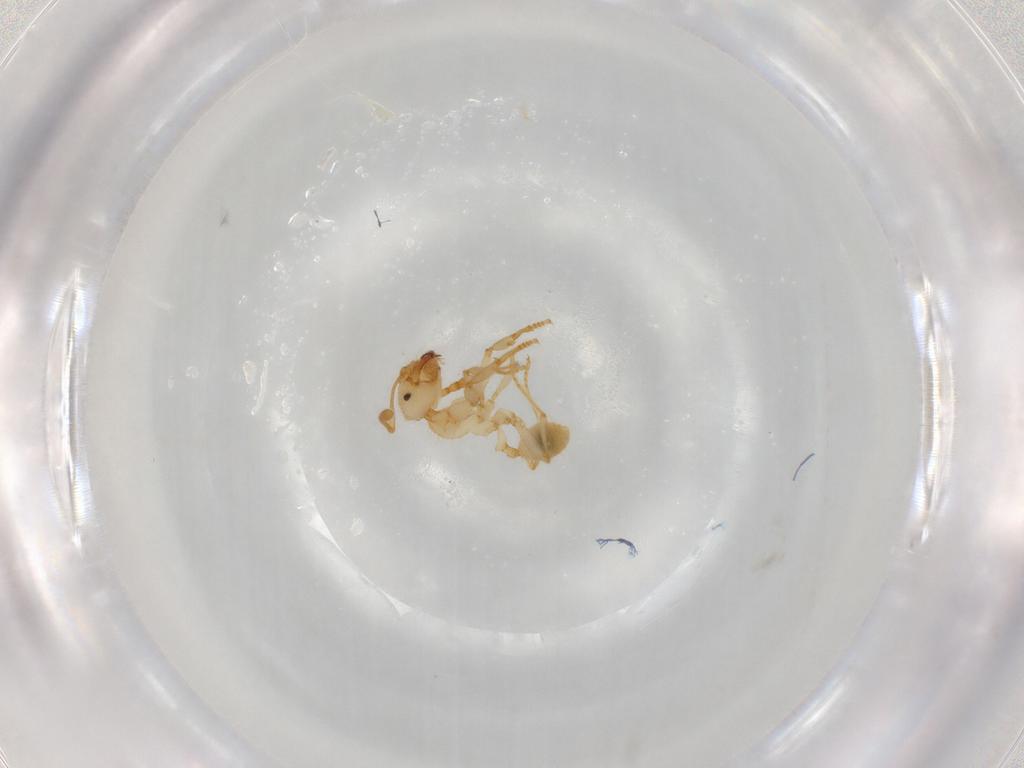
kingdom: Animalia
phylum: Arthropoda
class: Insecta
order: Hymenoptera
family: Formicidae
